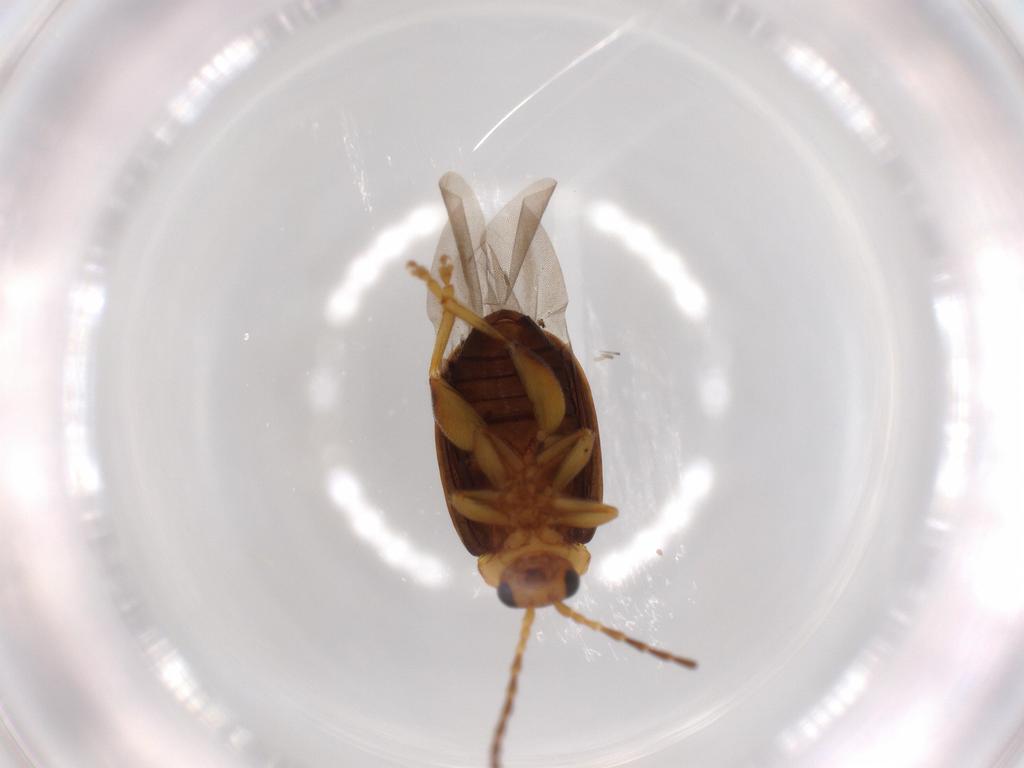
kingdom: Animalia
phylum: Arthropoda
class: Insecta
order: Coleoptera
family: Chrysomelidae
